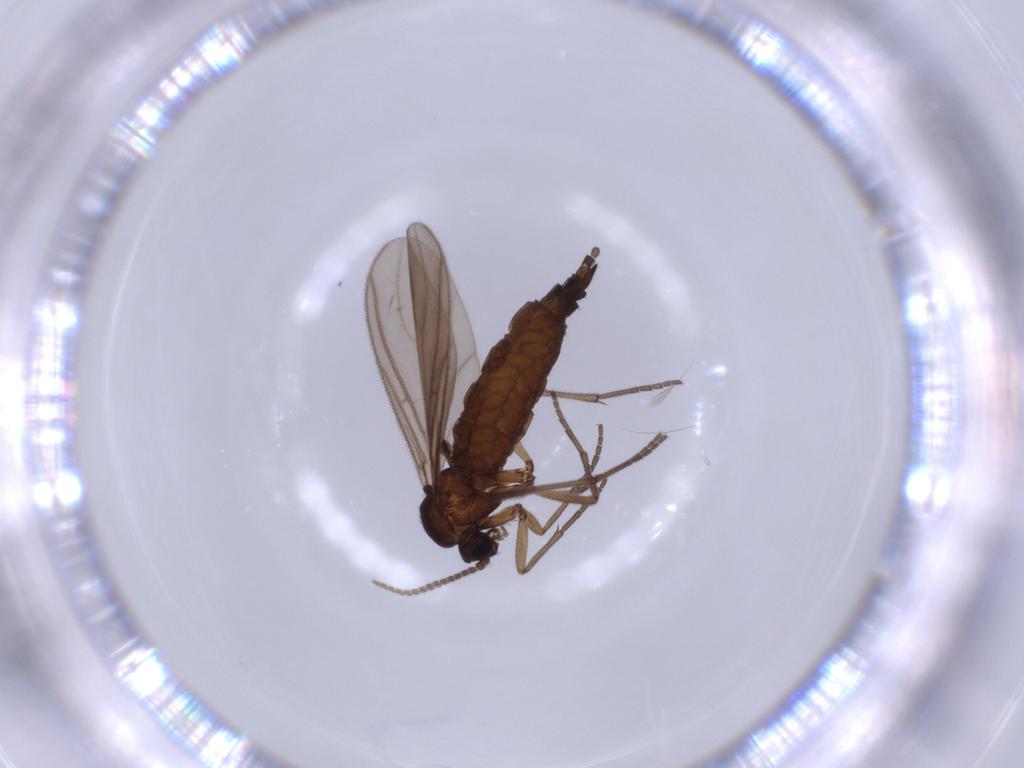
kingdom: Animalia
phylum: Arthropoda
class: Insecta
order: Diptera
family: Sciaridae
